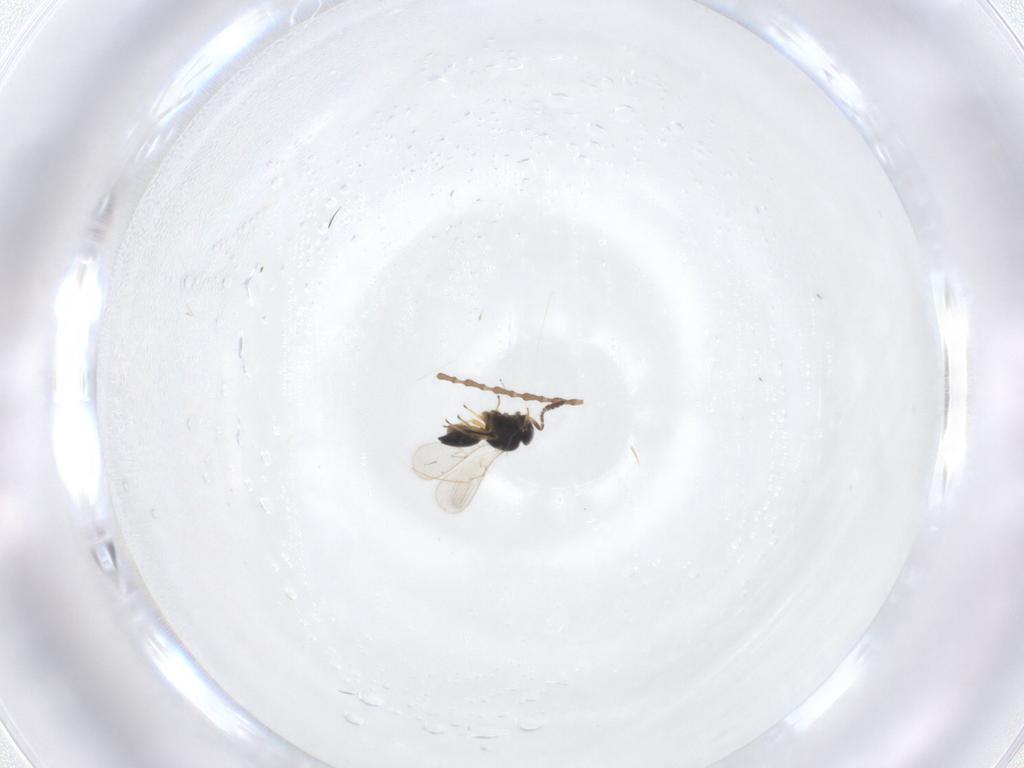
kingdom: Animalia
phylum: Arthropoda
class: Insecta
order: Hymenoptera
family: Scelionidae
